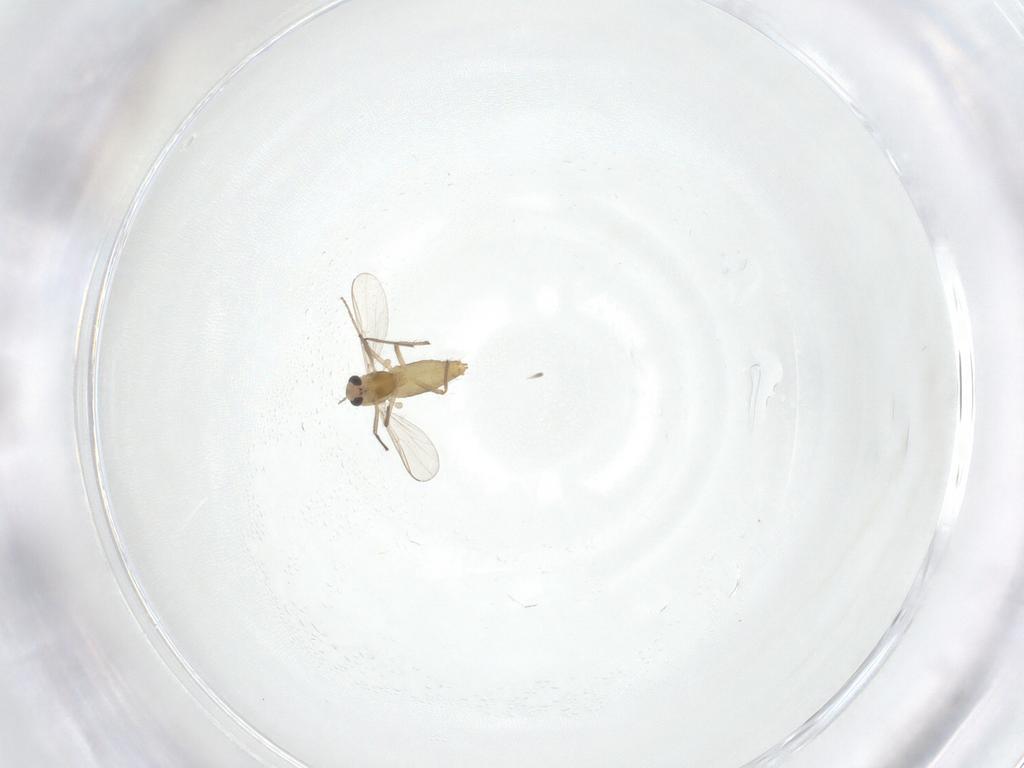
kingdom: Animalia
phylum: Arthropoda
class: Insecta
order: Diptera
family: Chironomidae
